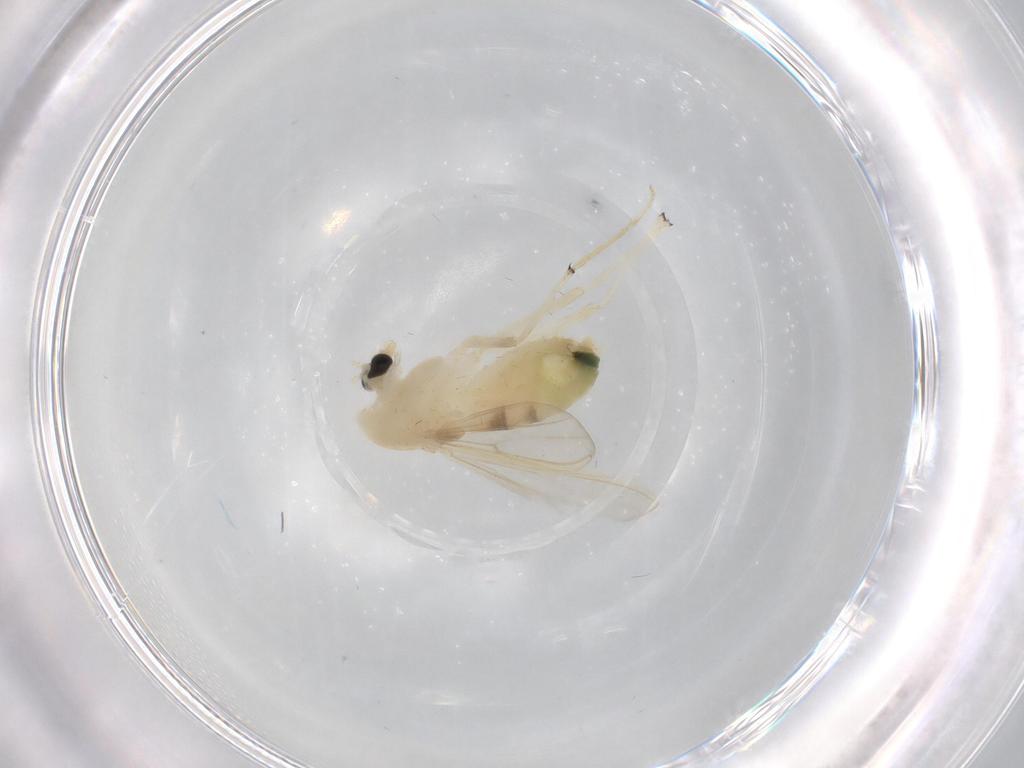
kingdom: Animalia
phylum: Arthropoda
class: Insecta
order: Diptera
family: Chironomidae
